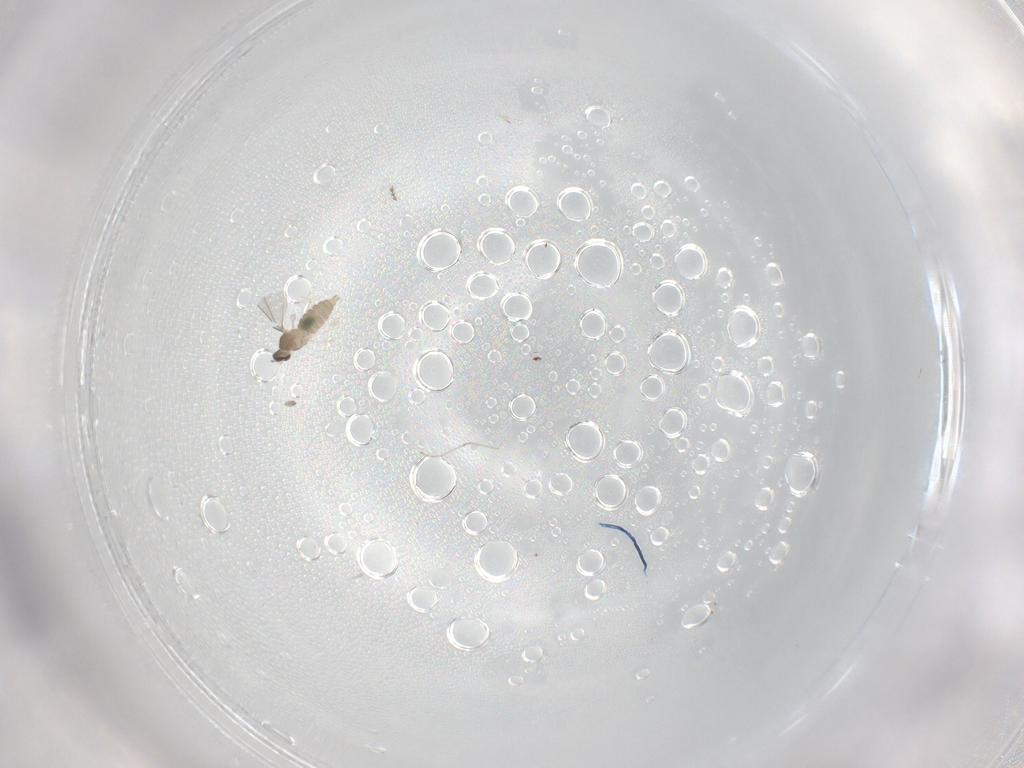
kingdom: Animalia
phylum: Arthropoda
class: Insecta
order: Diptera
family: Cecidomyiidae
